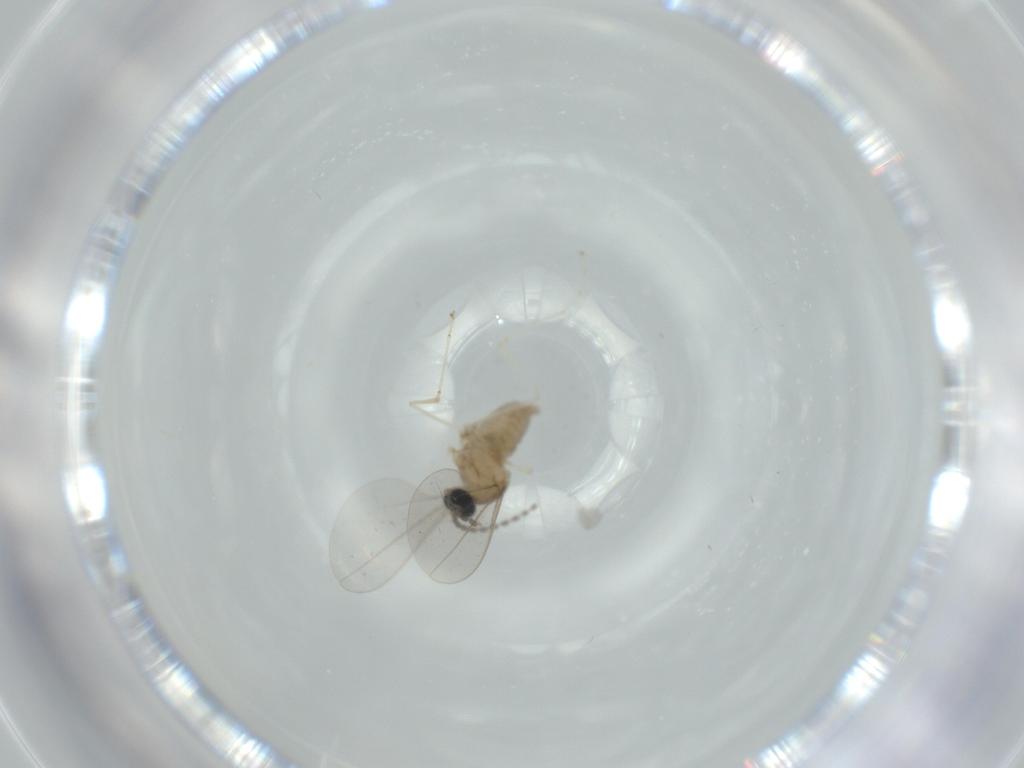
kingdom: Animalia
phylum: Arthropoda
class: Insecta
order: Diptera
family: Cecidomyiidae
